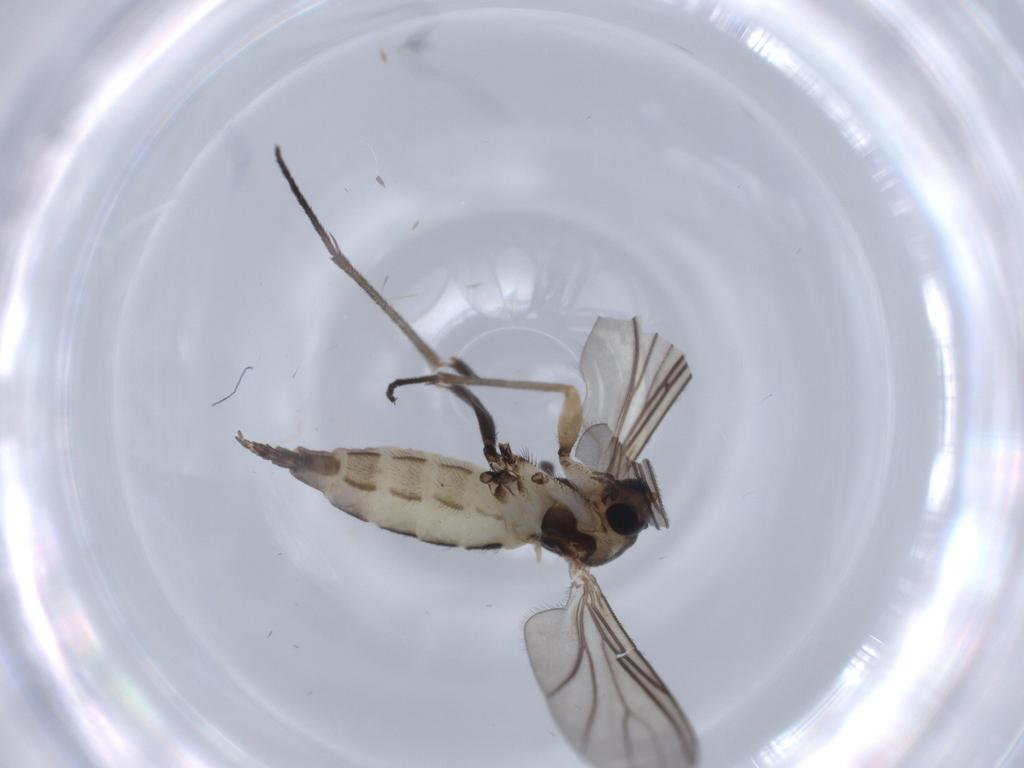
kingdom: Animalia
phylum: Arthropoda
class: Insecta
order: Diptera
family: Sciaridae
